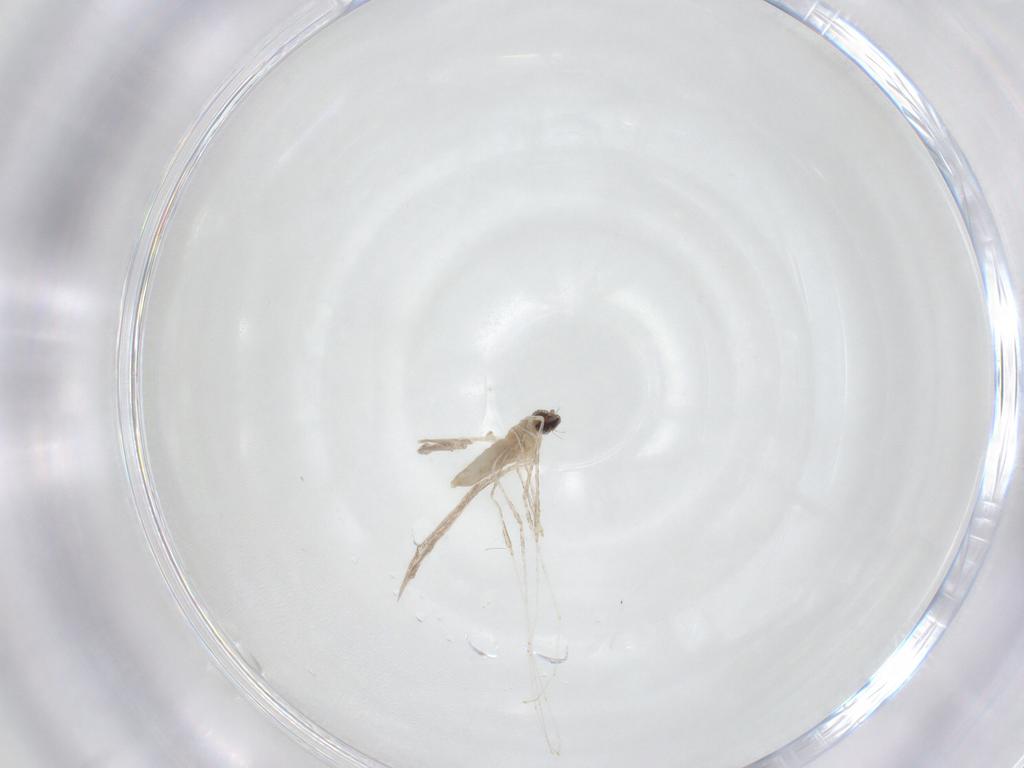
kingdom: Animalia
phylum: Arthropoda
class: Insecta
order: Diptera
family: Cecidomyiidae
